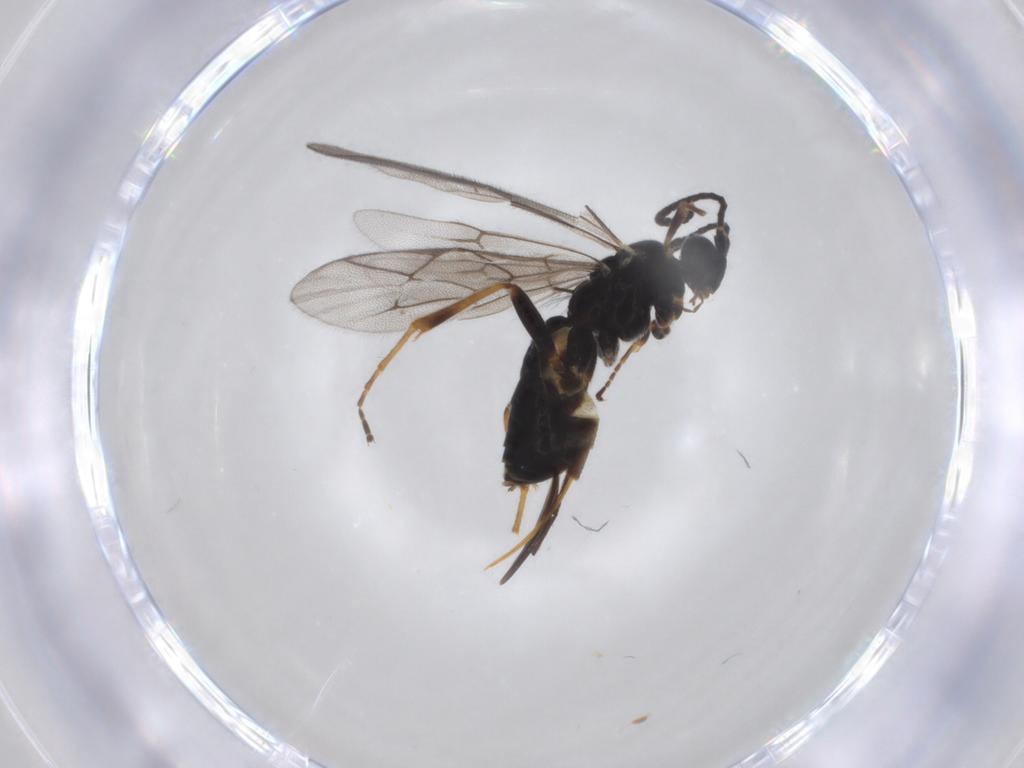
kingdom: Animalia
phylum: Arthropoda
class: Insecta
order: Hymenoptera
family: Ichneumonidae
